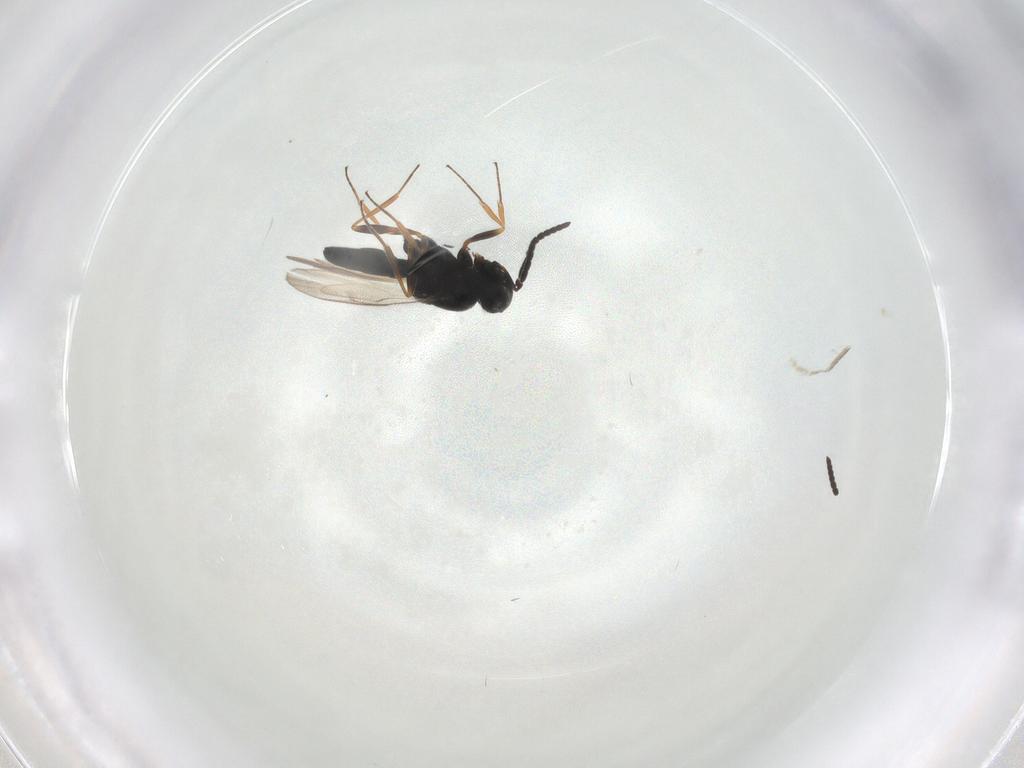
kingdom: Animalia
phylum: Arthropoda
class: Insecta
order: Hymenoptera
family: Scelionidae
